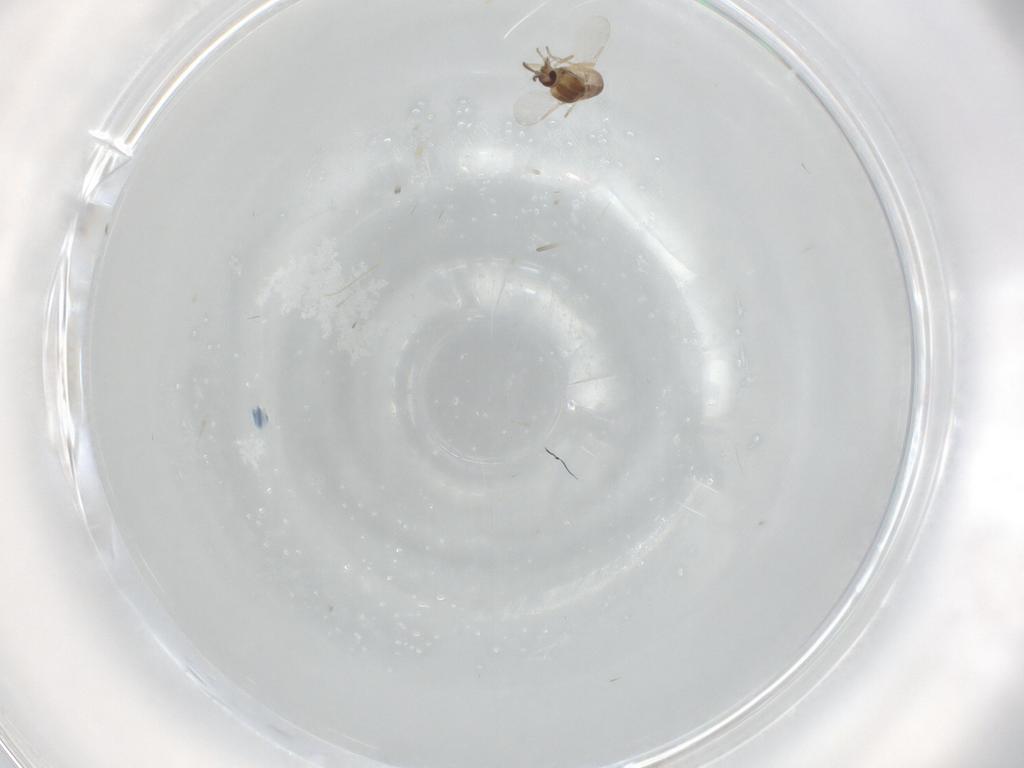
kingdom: Animalia
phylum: Arthropoda
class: Insecta
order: Diptera
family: Ceratopogonidae
